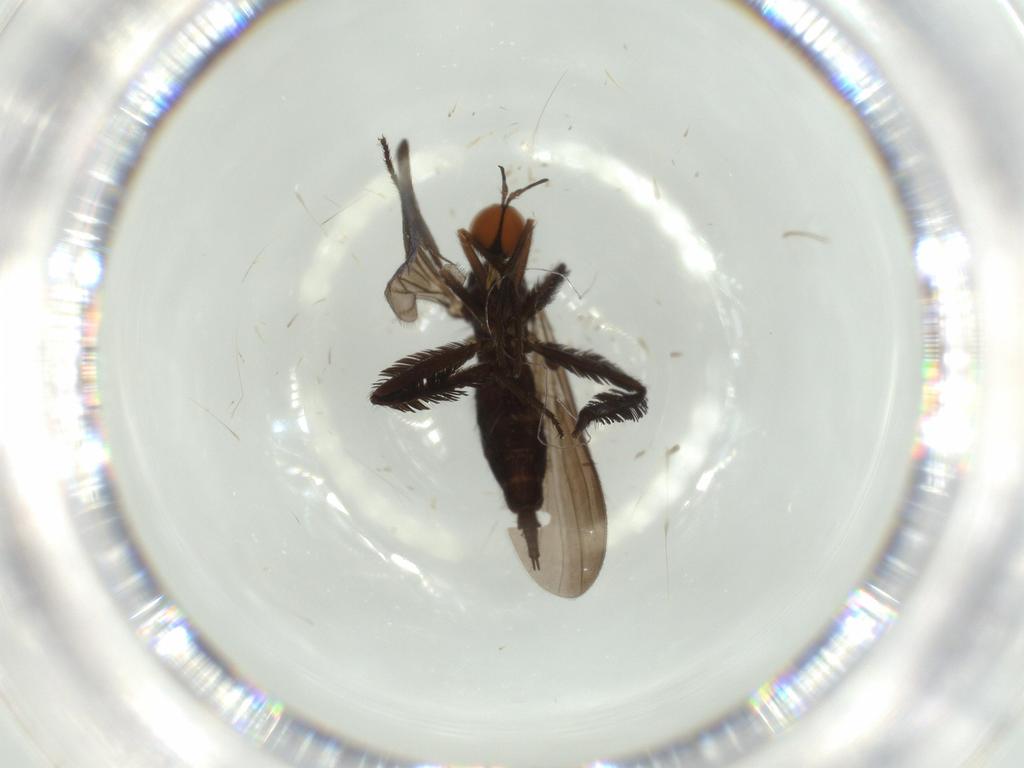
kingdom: Animalia
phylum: Arthropoda
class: Insecta
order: Diptera
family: Empididae
